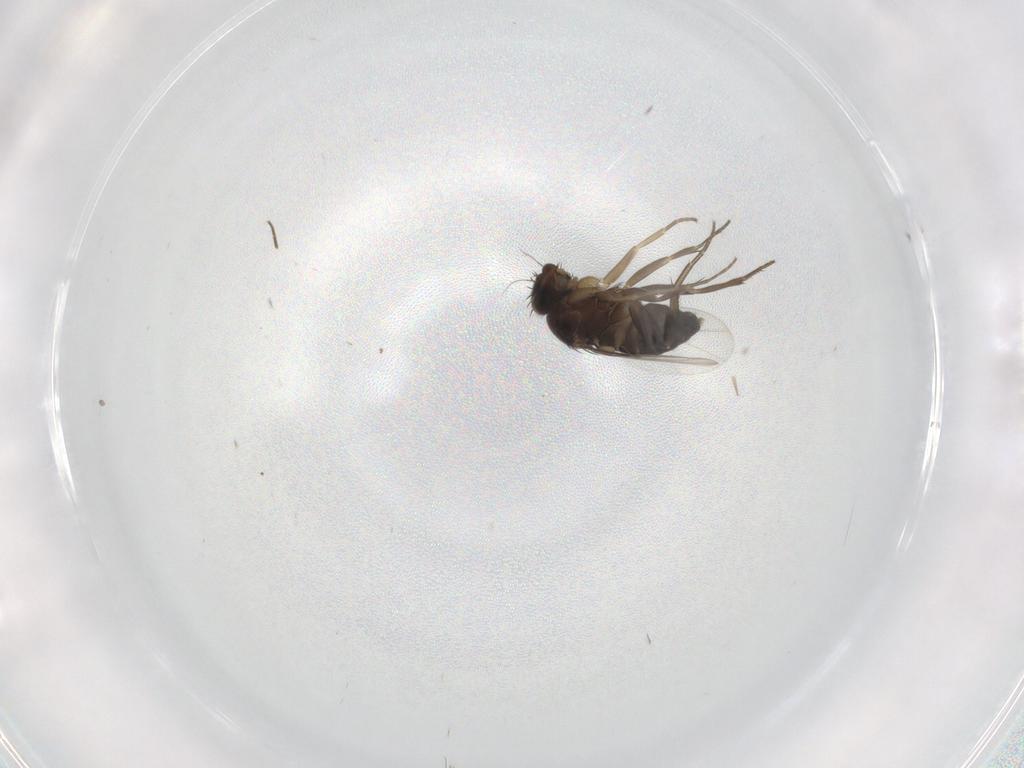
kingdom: Animalia
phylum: Arthropoda
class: Insecta
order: Diptera
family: Phoridae
